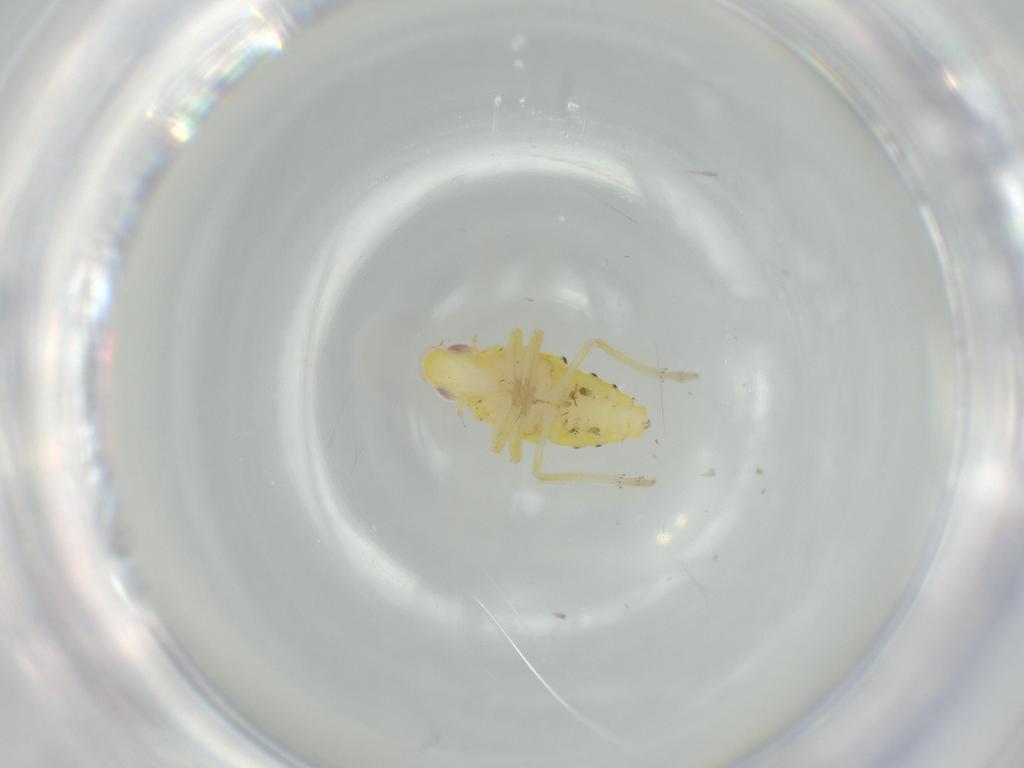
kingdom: Animalia
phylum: Arthropoda
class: Insecta
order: Hemiptera
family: Tropiduchidae
